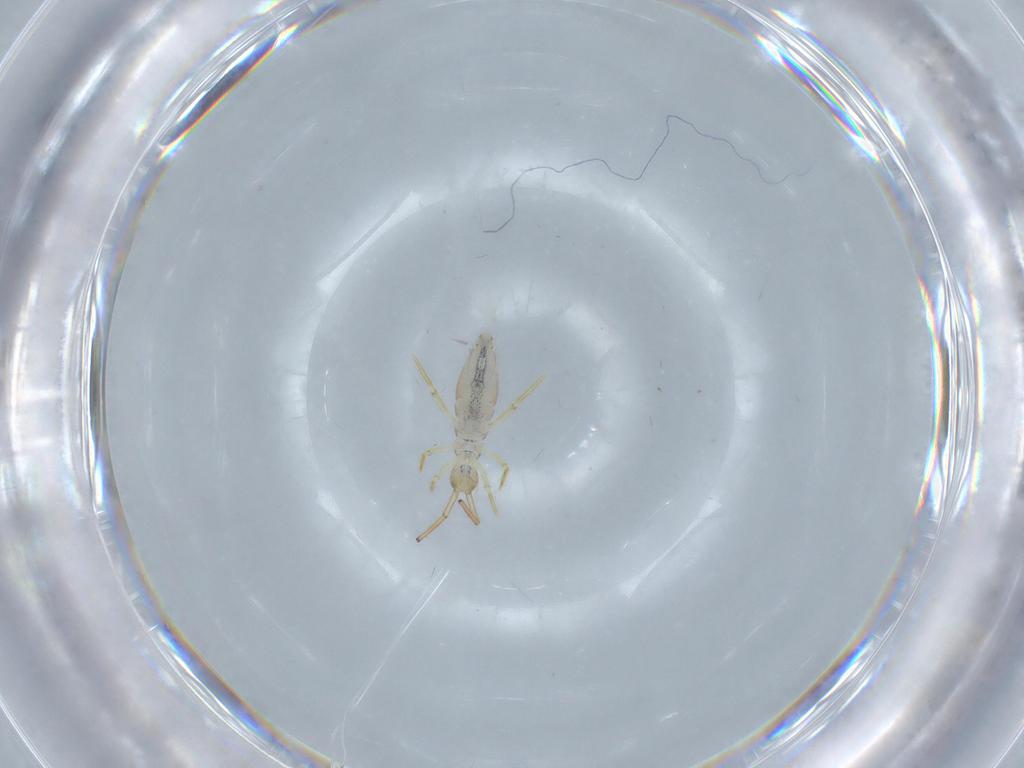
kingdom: Animalia
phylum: Arthropoda
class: Collembola
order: Entomobryomorpha
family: Paronellidae
